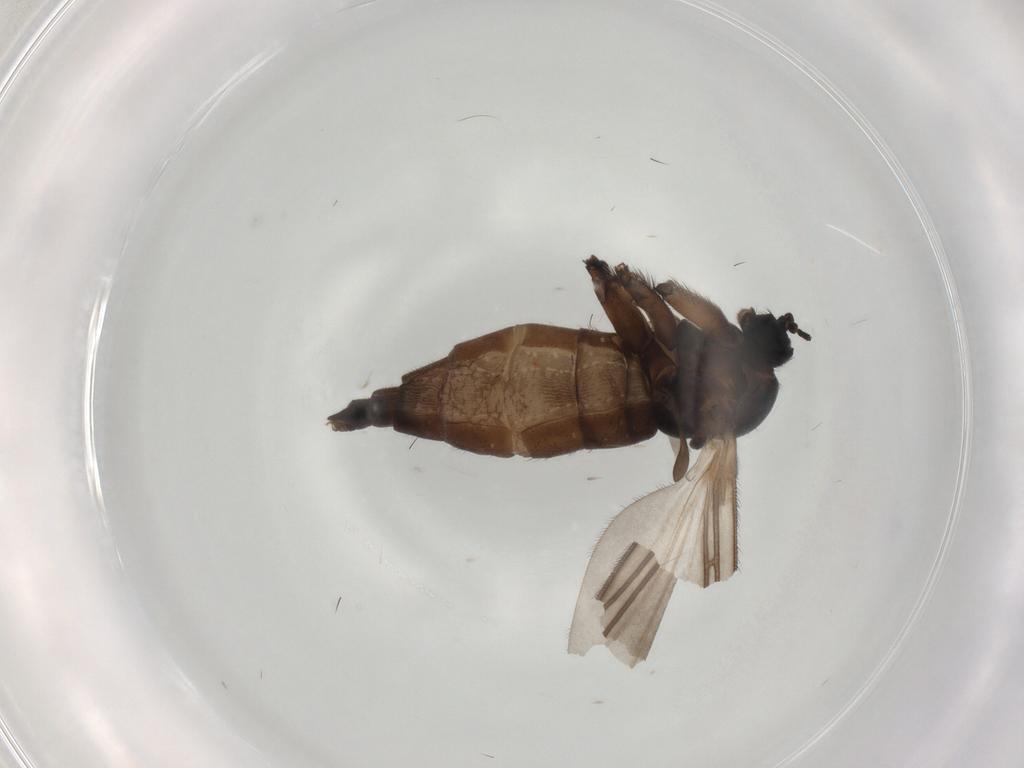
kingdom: Animalia
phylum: Arthropoda
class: Insecta
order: Diptera
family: Sciaridae
